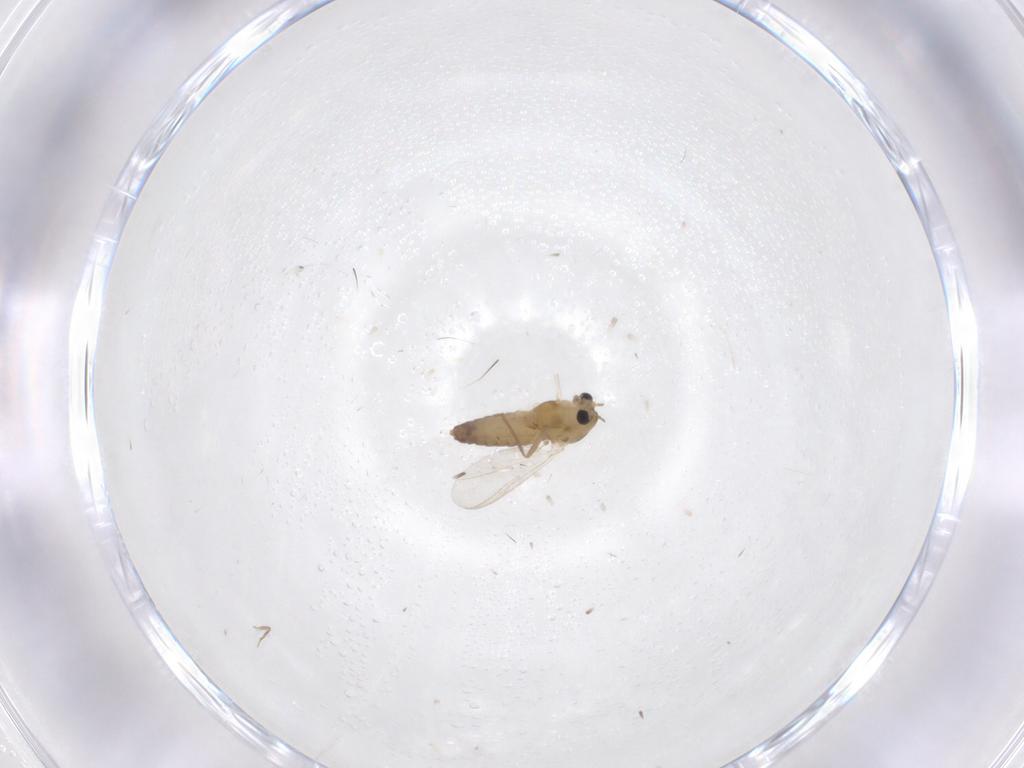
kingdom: Animalia
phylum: Arthropoda
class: Insecta
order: Diptera
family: Chironomidae
